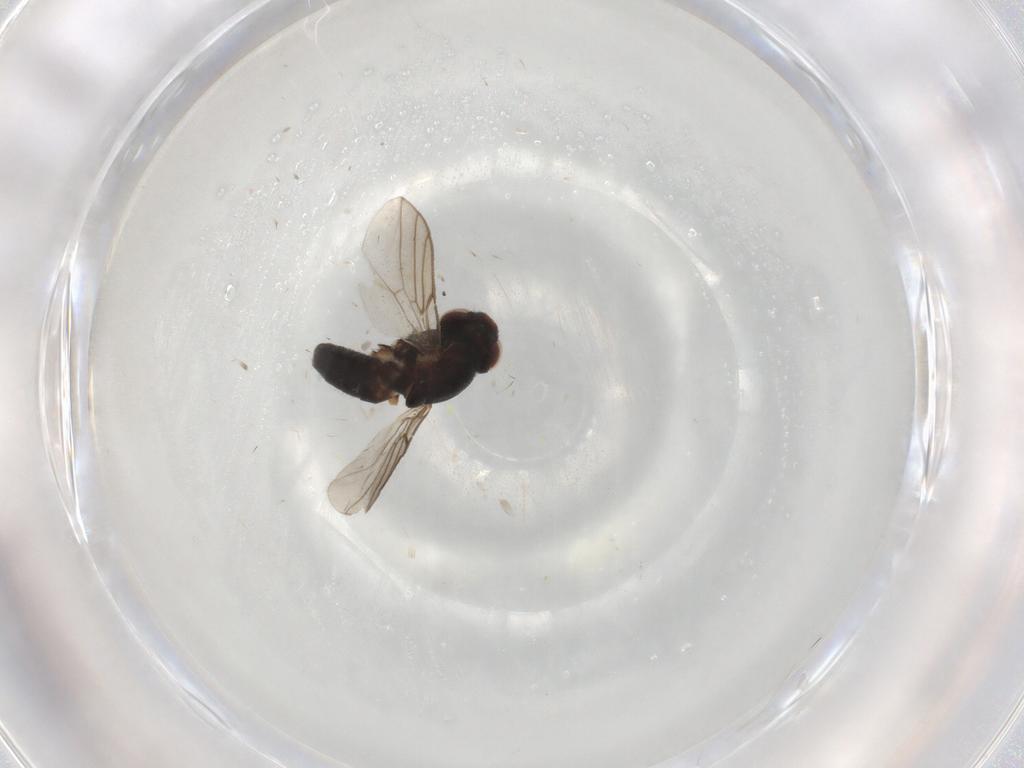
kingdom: Animalia
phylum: Arthropoda
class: Insecta
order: Diptera
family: Chloropidae
